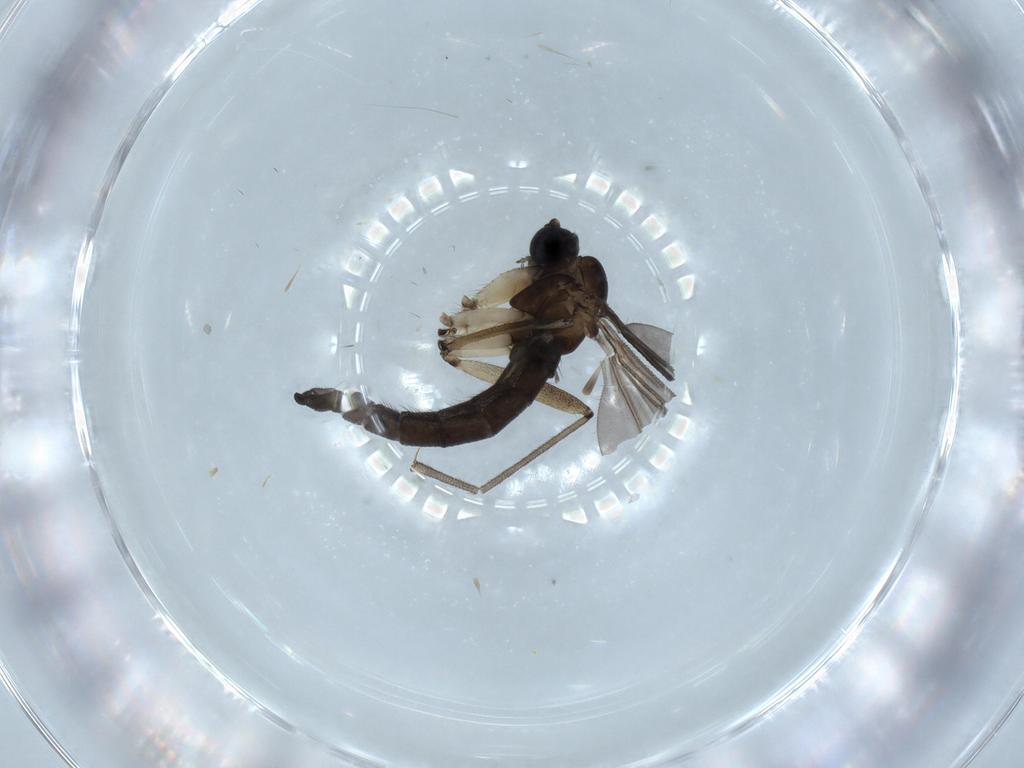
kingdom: Animalia
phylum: Arthropoda
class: Insecta
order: Diptera
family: Sciaridae
